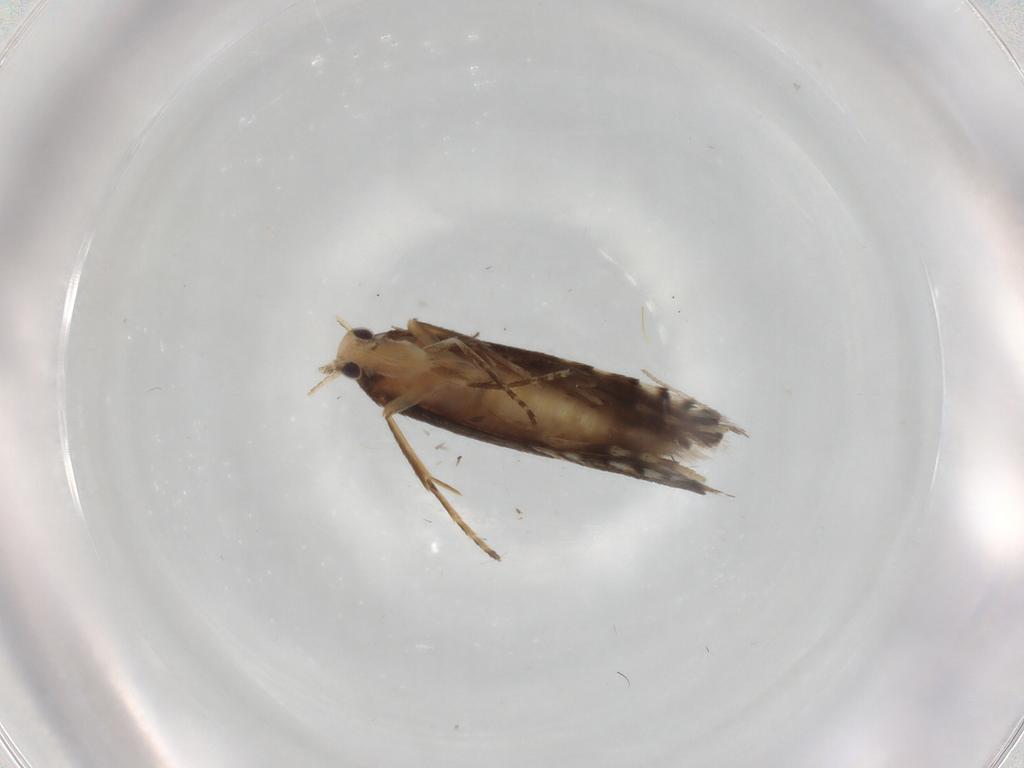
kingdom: Animalia
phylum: Arthropoda
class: Insecta
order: Lepidoptera
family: Glyphipterigidae
